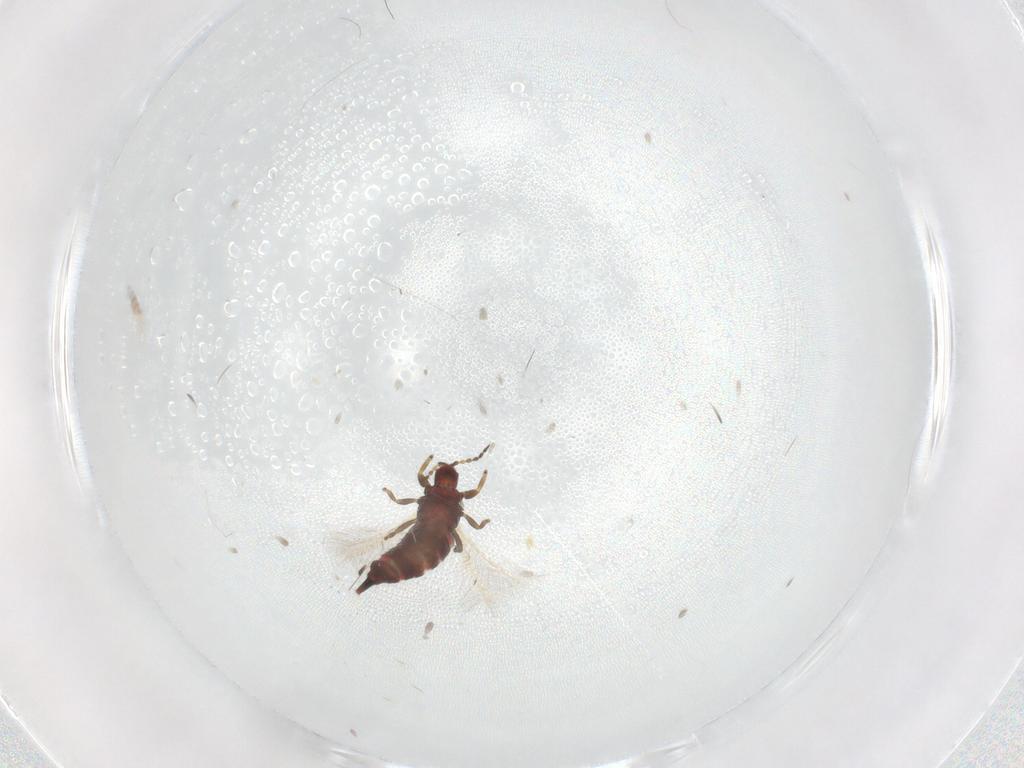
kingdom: Animalia
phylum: Arthropoda
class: Insecta
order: Thysanoptera
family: Phlaeothripidae
